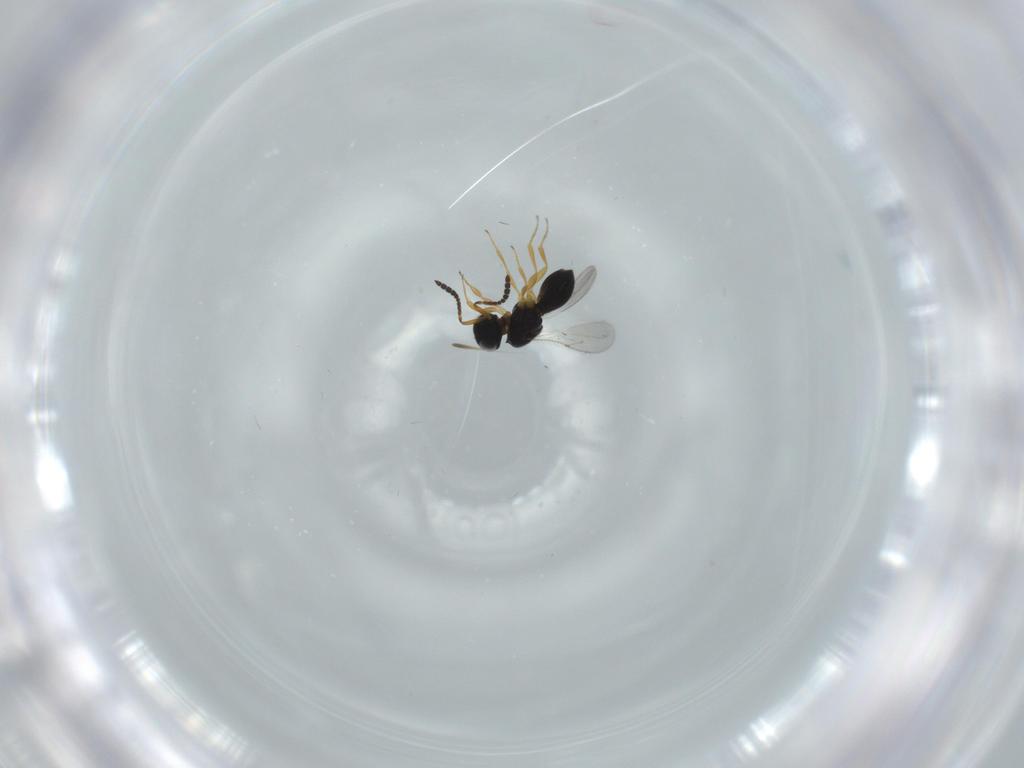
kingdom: Animalia
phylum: Arthropoda
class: Insecta
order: Hymenoptera
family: Scelionidae
